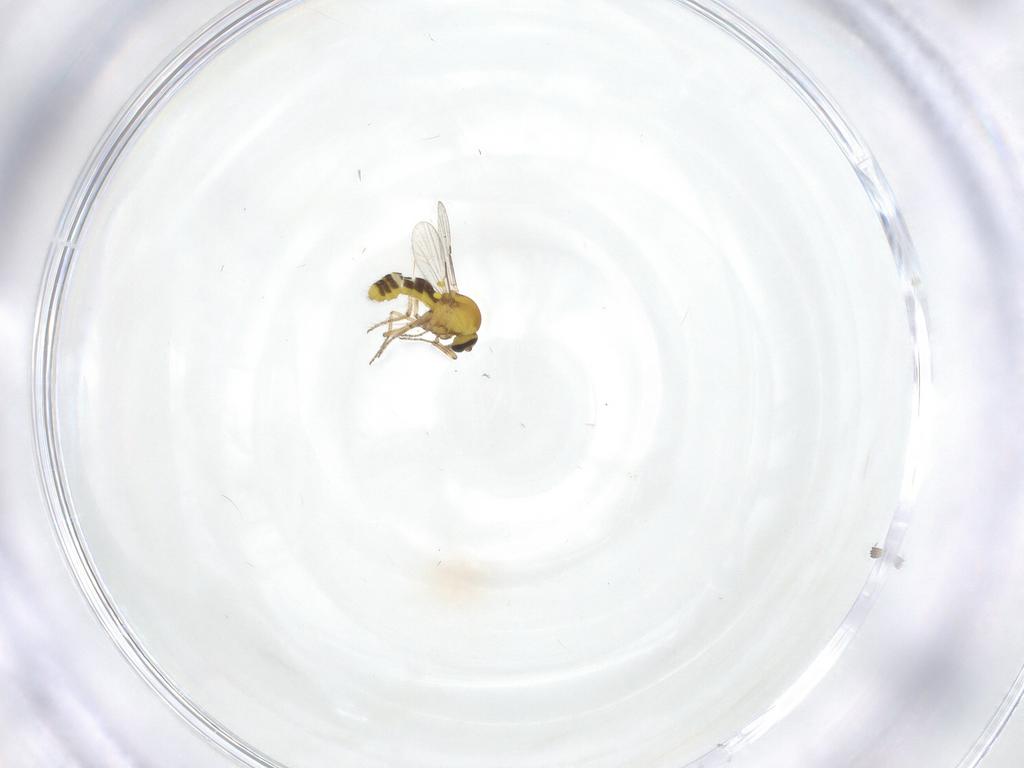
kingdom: Animalia
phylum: Arthropoda
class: Insecta
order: Diptera
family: Ceratopogonidae
